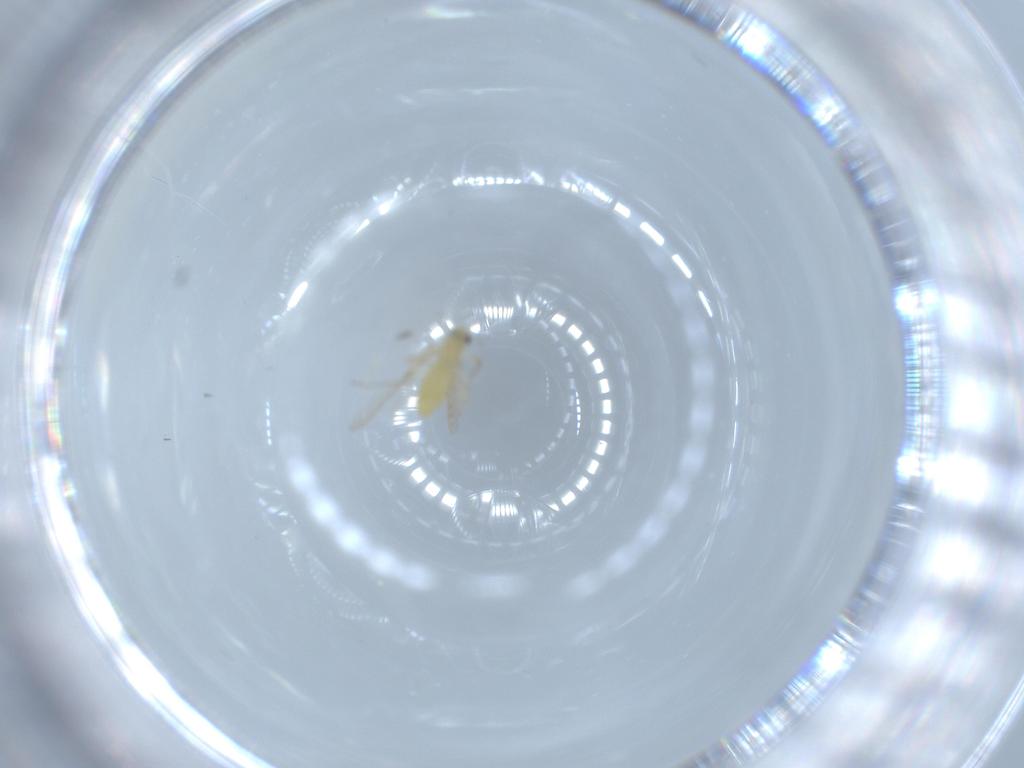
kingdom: Animalia
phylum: Arthropoda
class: Insecta
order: Diptera
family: Chironomidae
